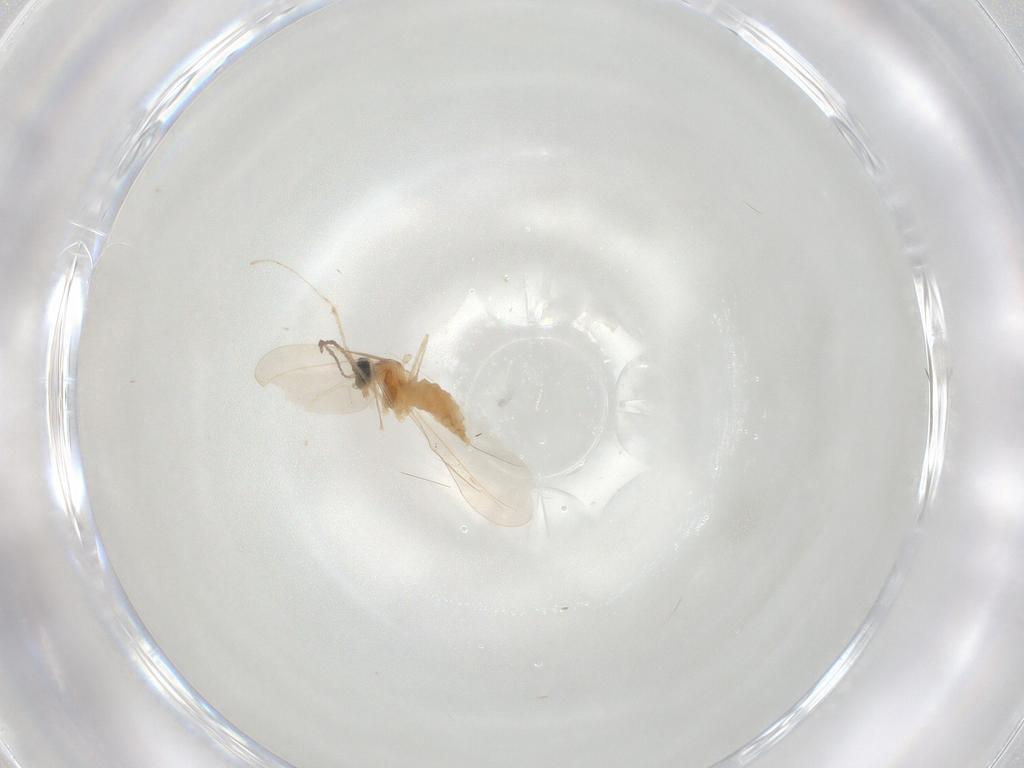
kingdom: Animalia
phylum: Arthropoda
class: Insecta
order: Diptera
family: Cecidomyiidae
